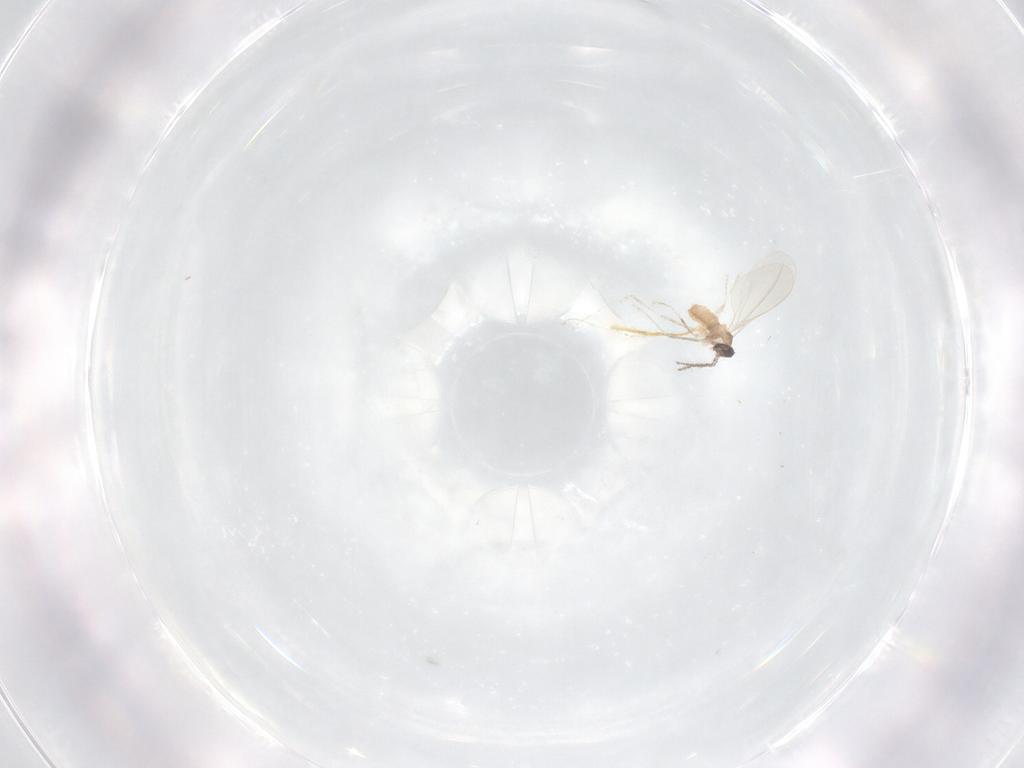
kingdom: Animalia
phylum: Arthropoda
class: Insecta
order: Diptera
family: Cecidomyiidae
